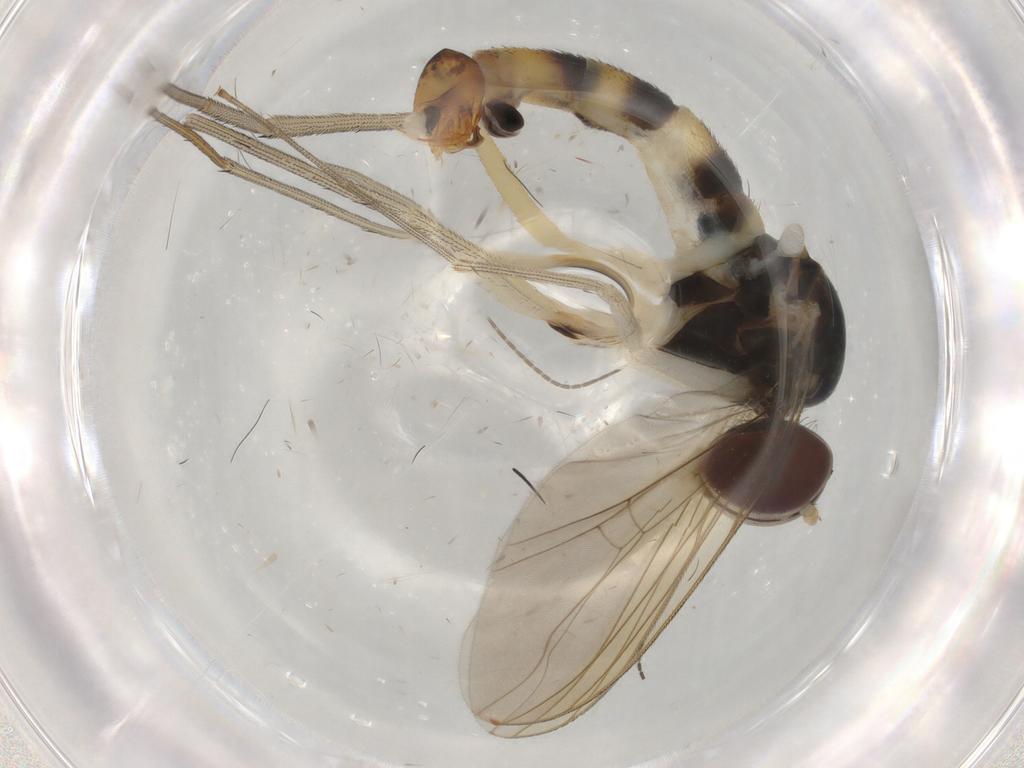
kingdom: Animalia
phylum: Arthropoda
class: Insecta
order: Diptera
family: Dolichopodidae
